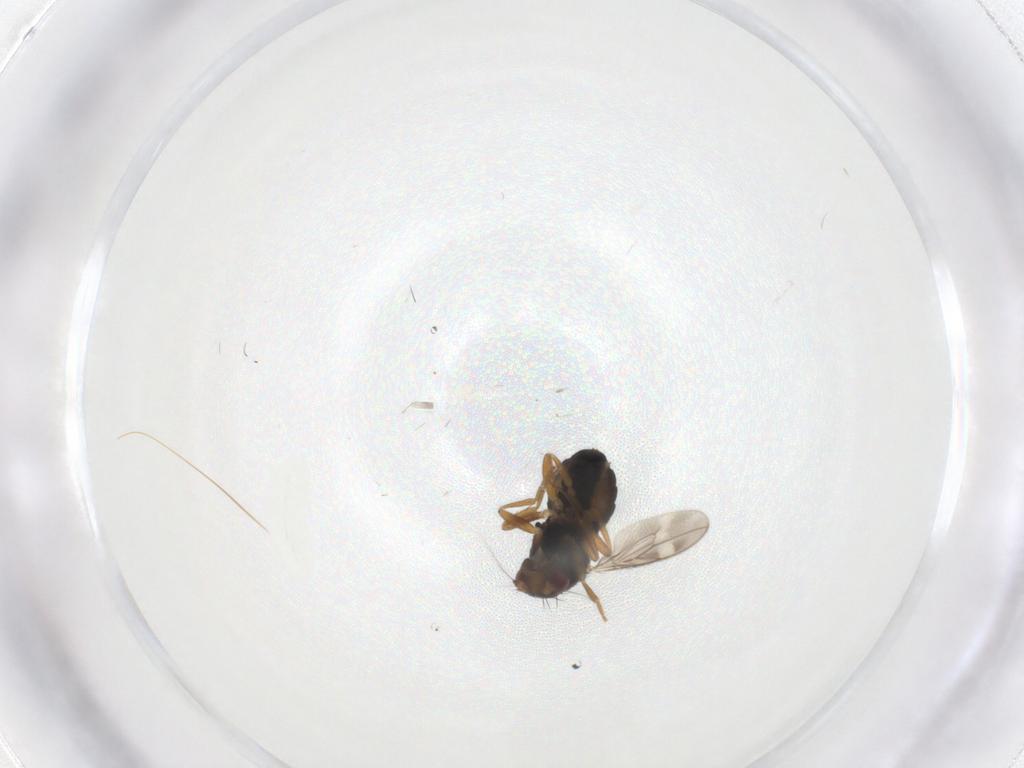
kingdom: Animalia
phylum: Arthropoda
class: Insecta
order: Diptera
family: Sphaeroceridae
